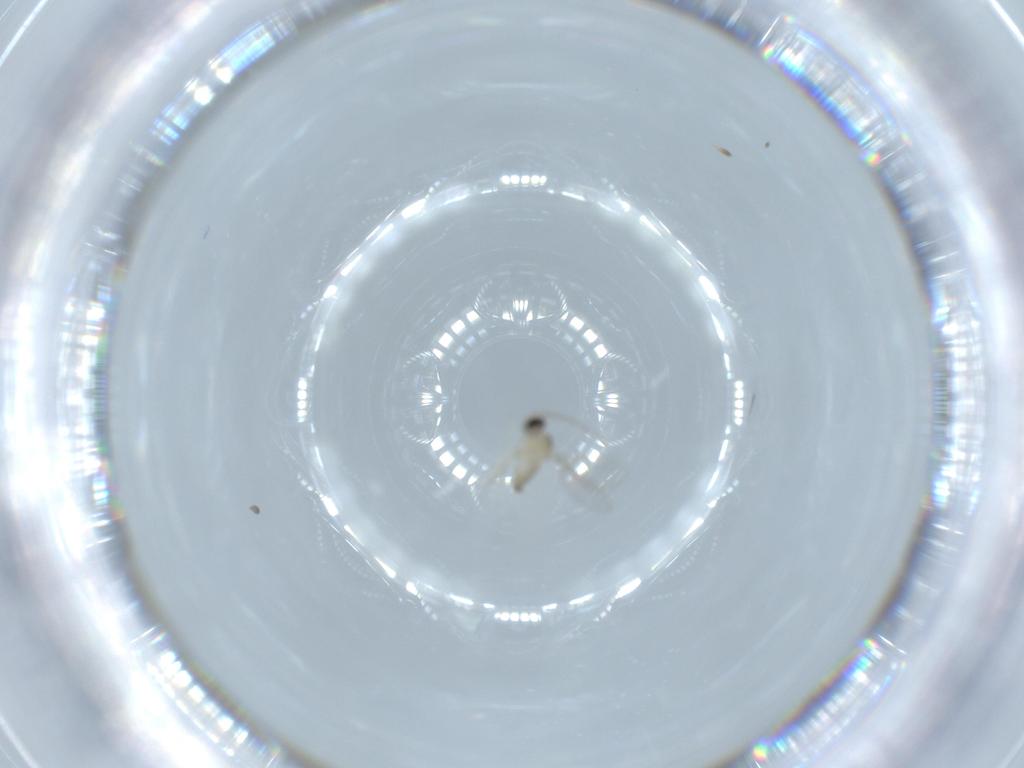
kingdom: Animalia
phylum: Arthropoda
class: Insecta
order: Diptera
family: Cecidomyiidae
